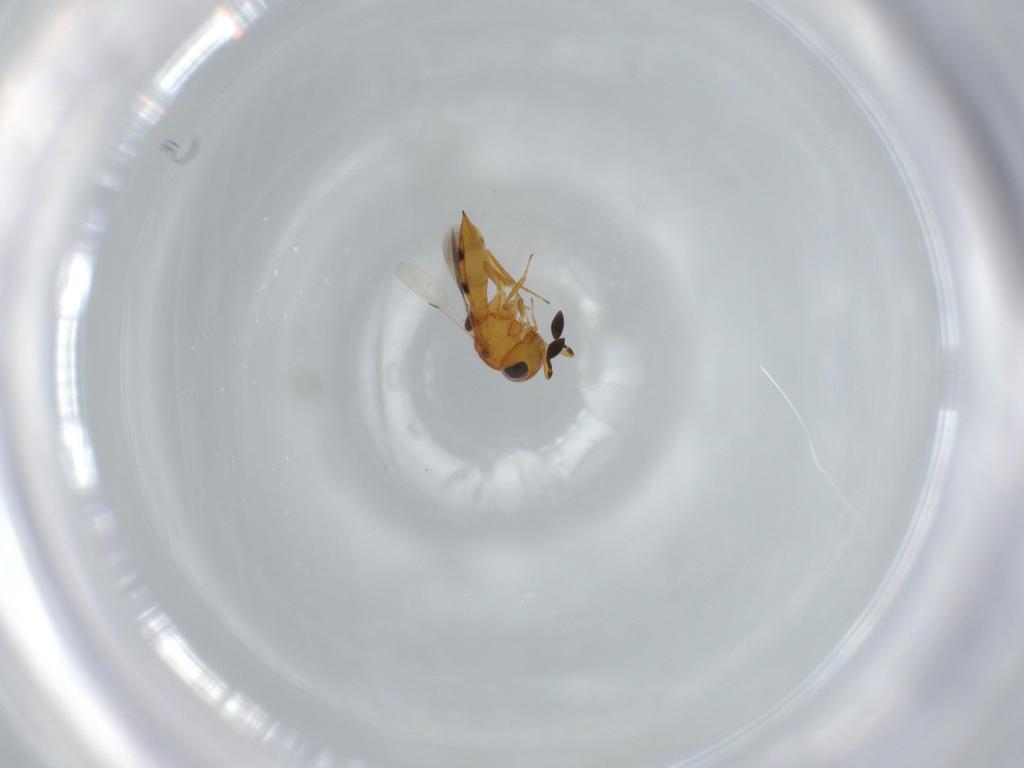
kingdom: Animalia
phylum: Arthropoda
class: Insecta
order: Hymenoptera
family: Scelionidae
